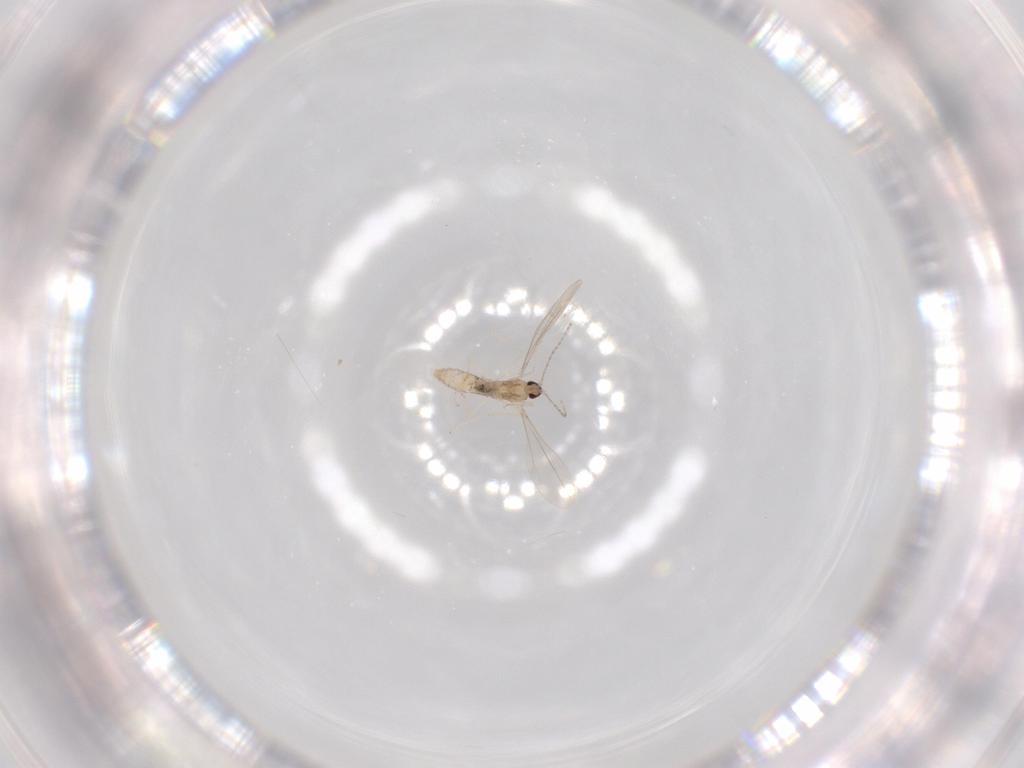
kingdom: Animalia
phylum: Arthropoda
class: Insecta
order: Diptera
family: Cecidomyiidae
